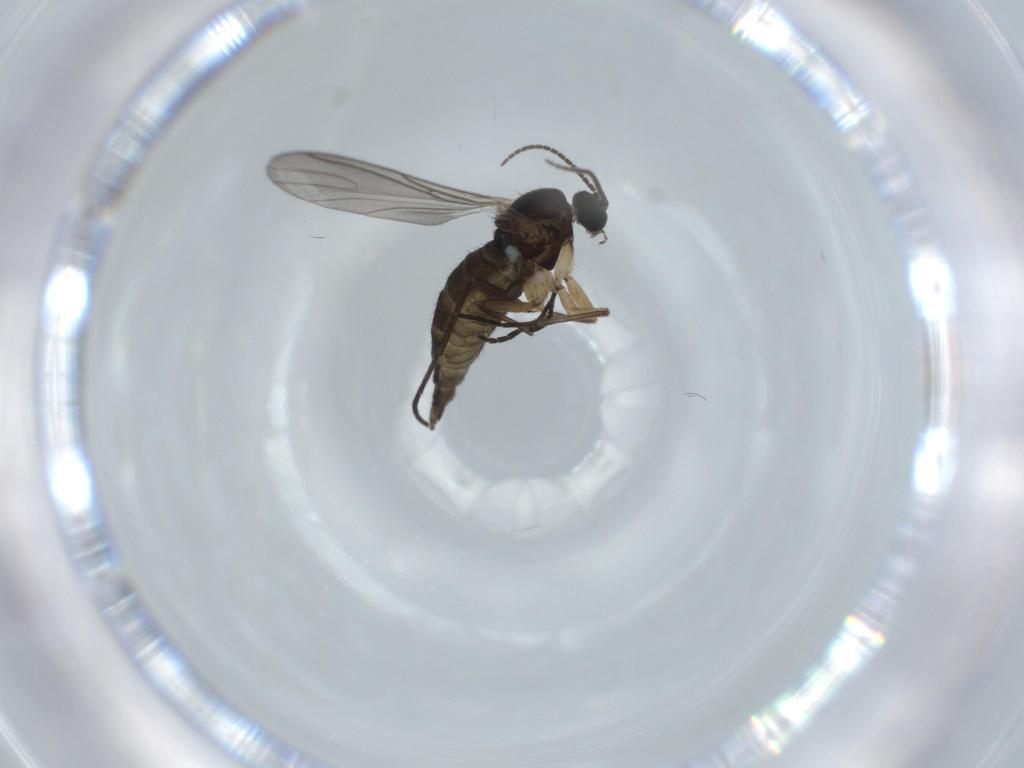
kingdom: Animalia
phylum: Arthropoda
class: Insecta
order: Diptera
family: Sciaridae
